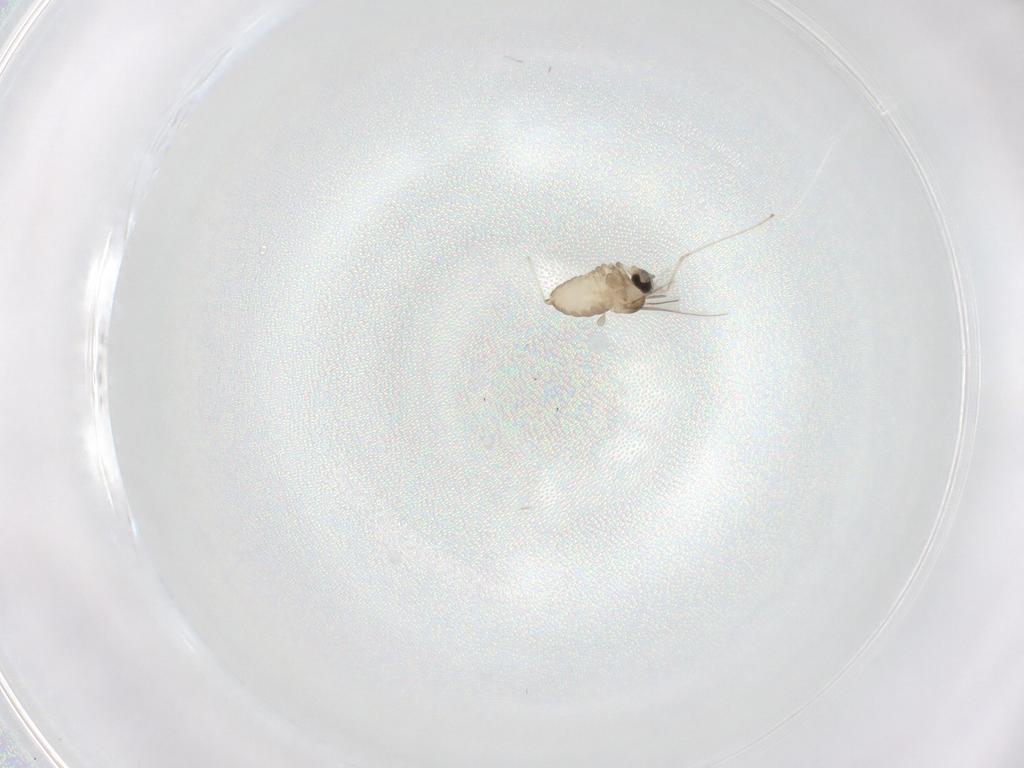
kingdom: Animalia
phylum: Arthropoda
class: Insecta
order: Diptera
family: Cecidomyiidae
